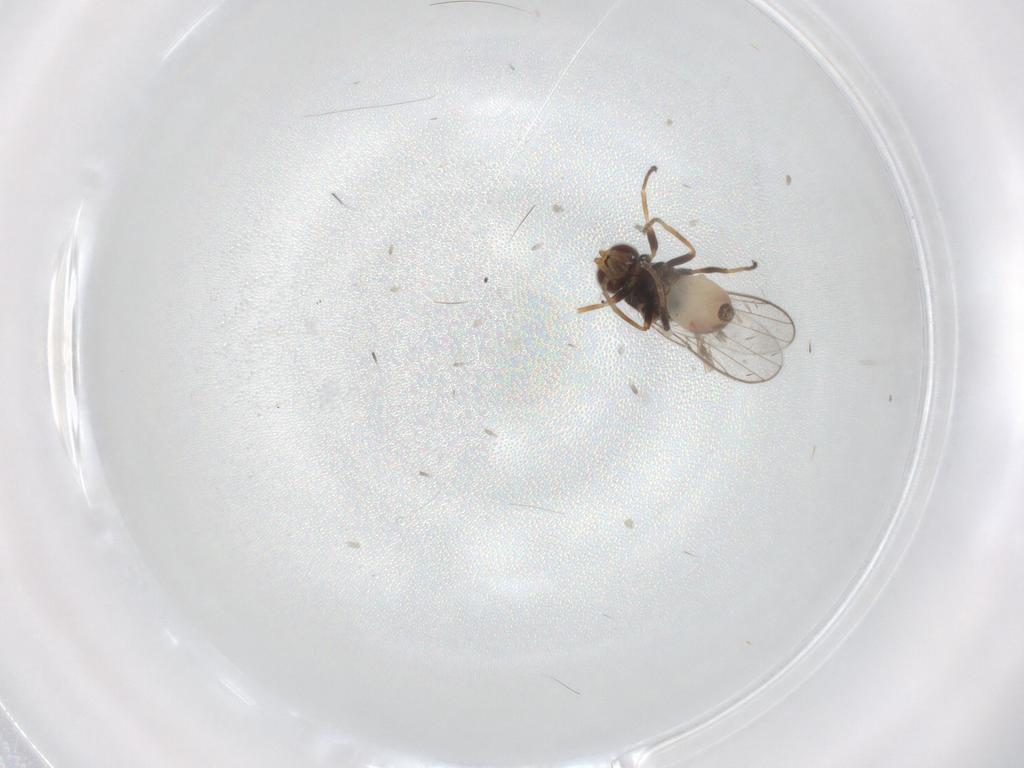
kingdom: Animalia
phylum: Arthropoda
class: Insecta
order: Diptera
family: Chloropidae
